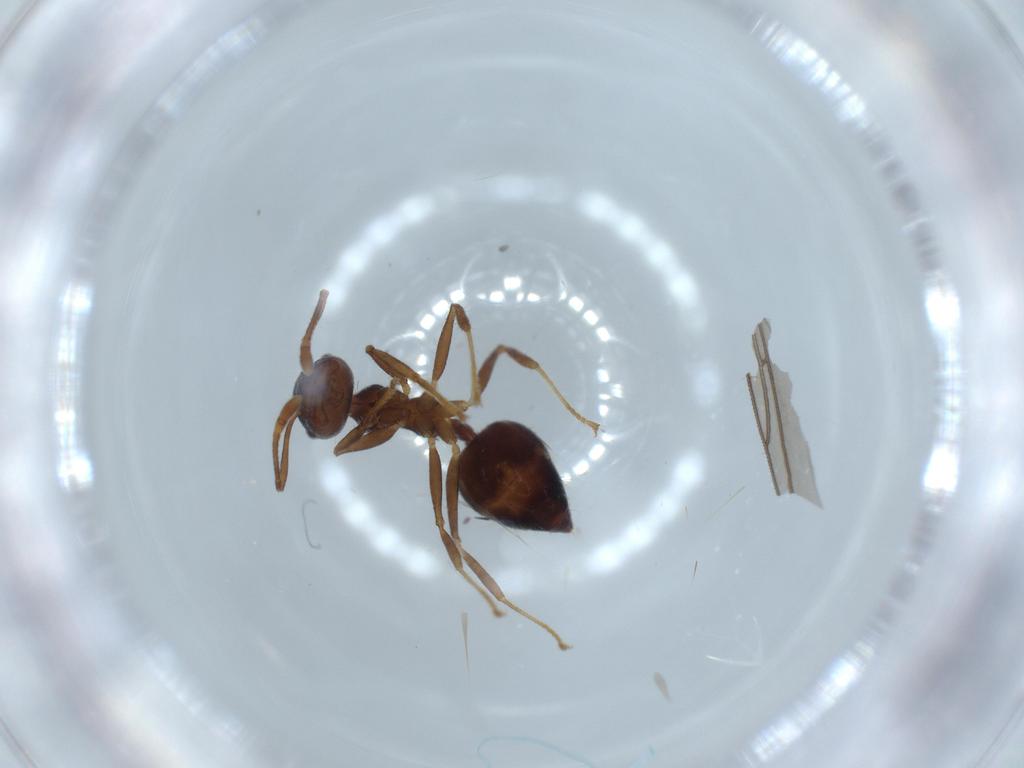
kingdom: Animalia
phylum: Arthropoda
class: Insecta
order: Hymenoptera
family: Formicidae
